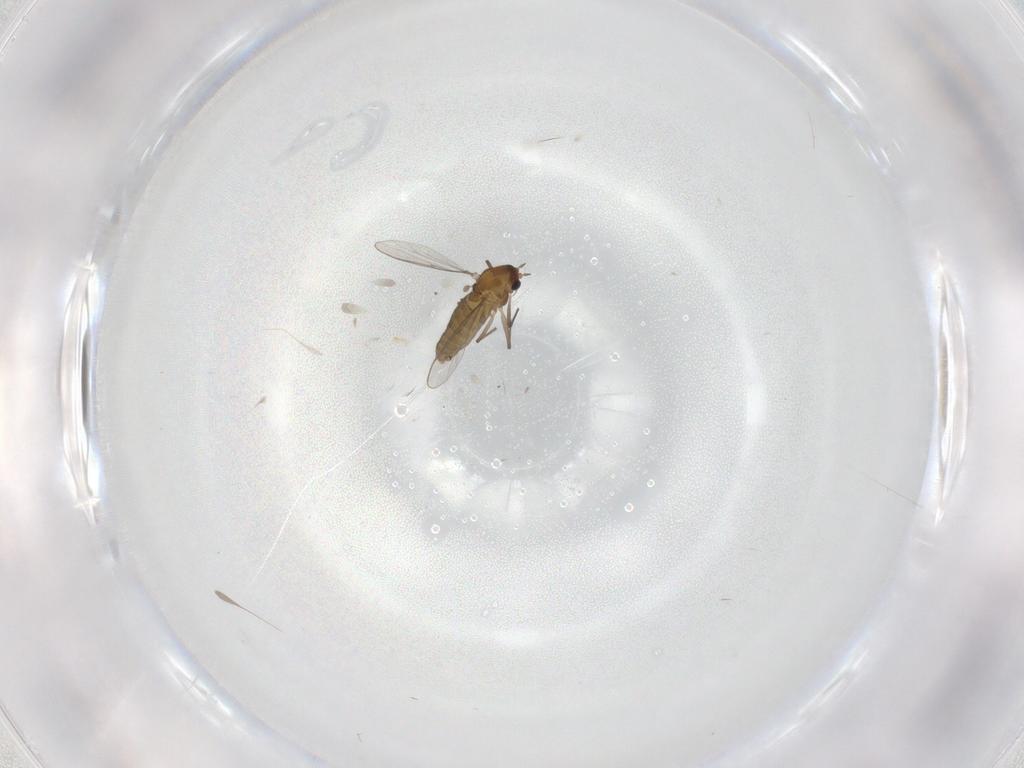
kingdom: Animalia
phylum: Arthropoda
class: Insecta
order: Diptera
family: Chironomidae
